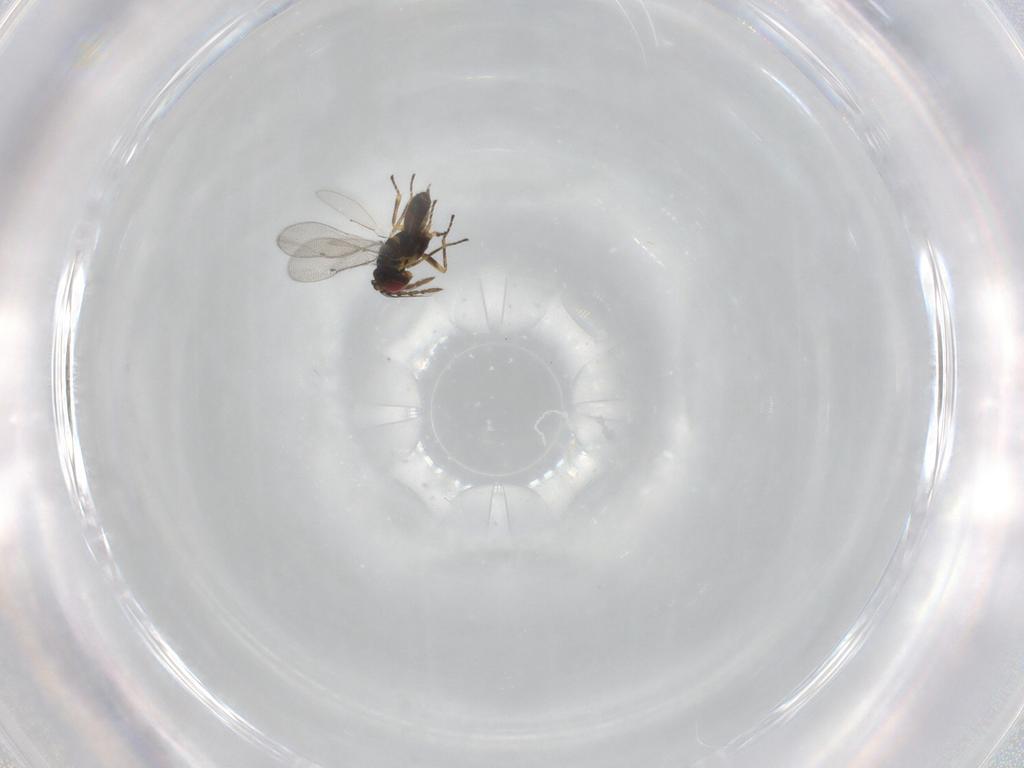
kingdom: Animalia
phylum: Arthropoda
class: Insecta
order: Hymenoptera
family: Eulophidae
